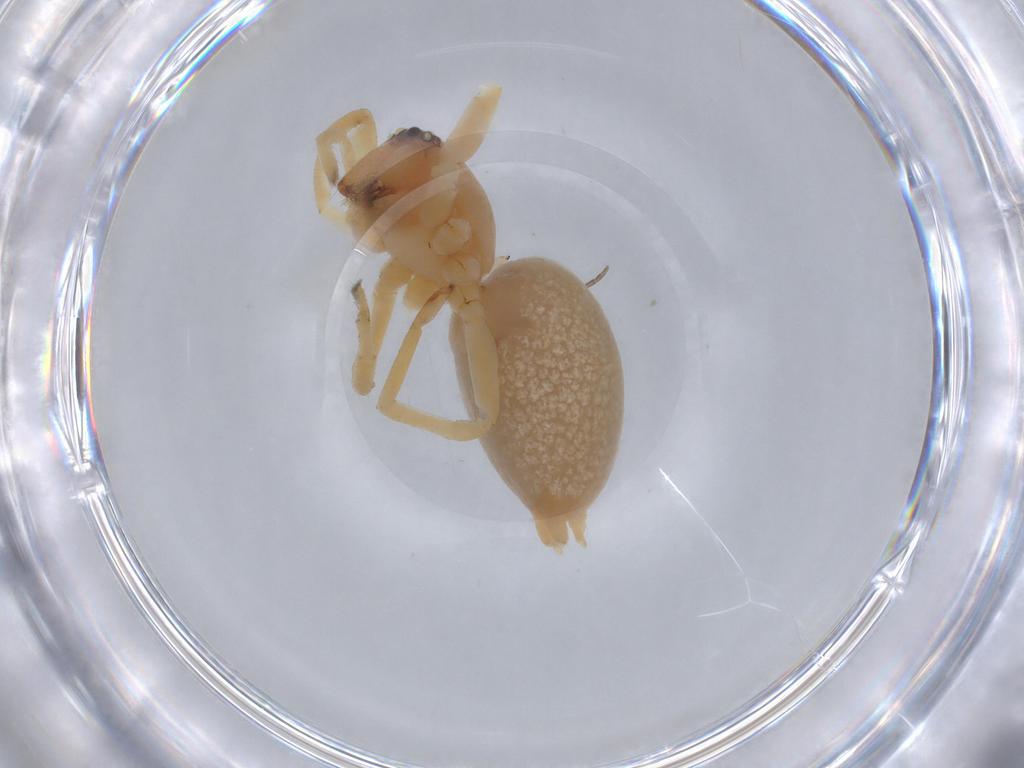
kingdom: Animalia
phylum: Arthropoda
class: Arachnida
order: Araneae
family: Cheiracanthiidae
